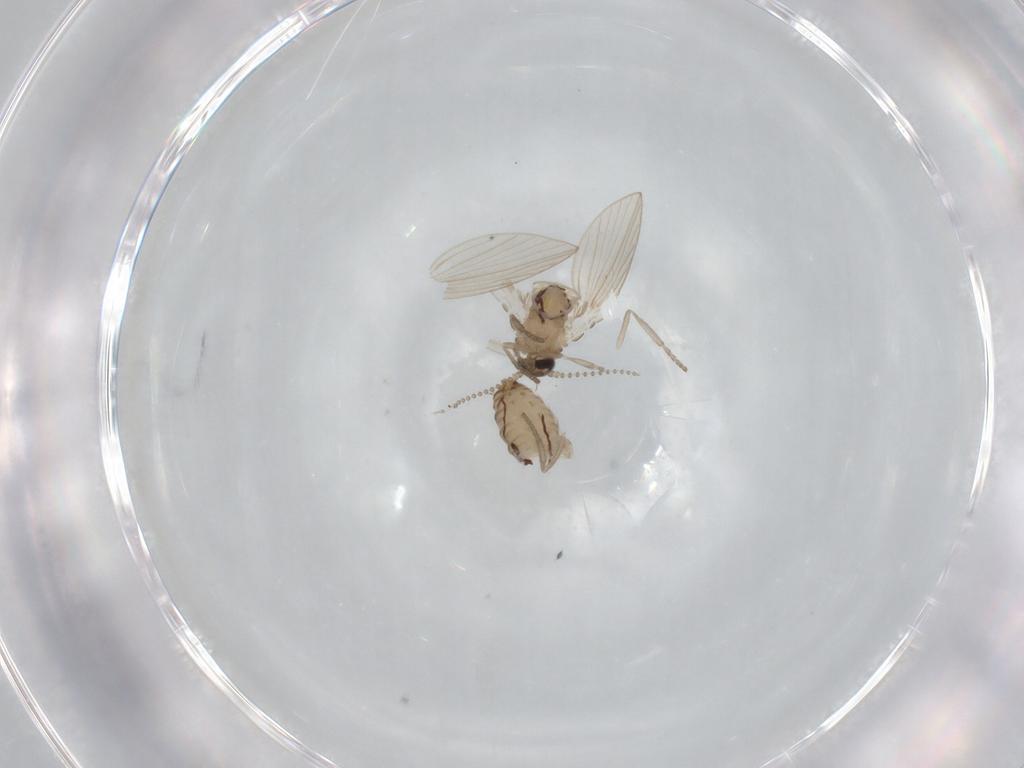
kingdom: Animalia
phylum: Arthropoda
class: Insecta
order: Diptera
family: Psychodidae
